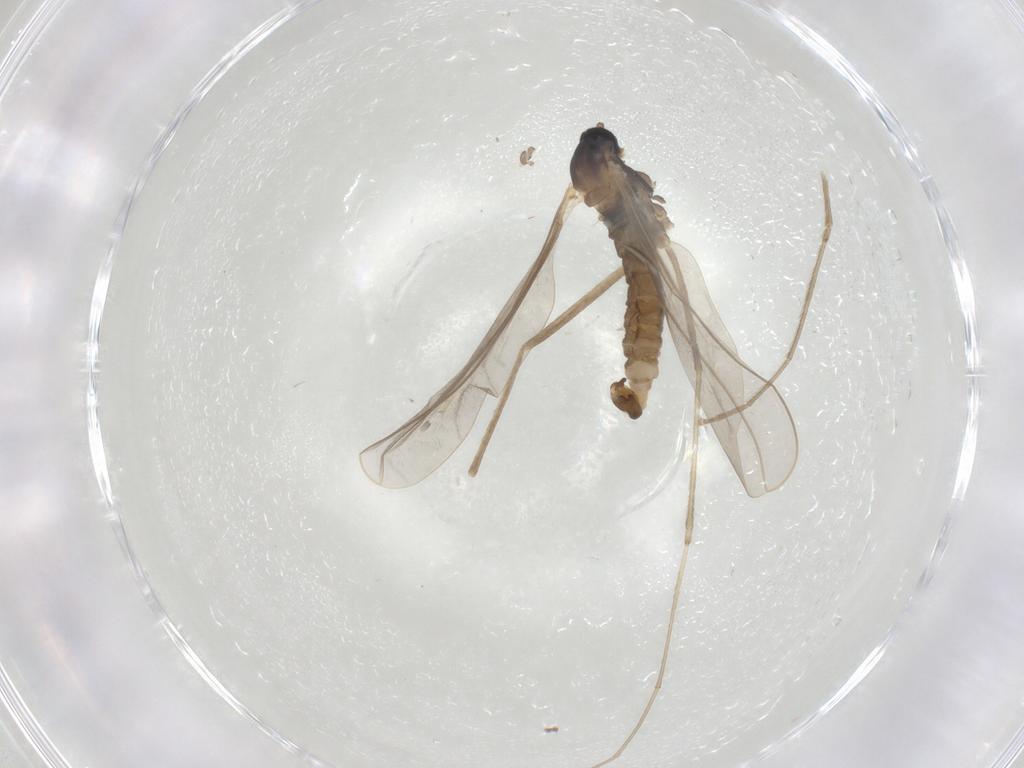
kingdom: Animalia
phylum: Arthropoda
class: Insecta
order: Diptera
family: Cecidomyiidae
